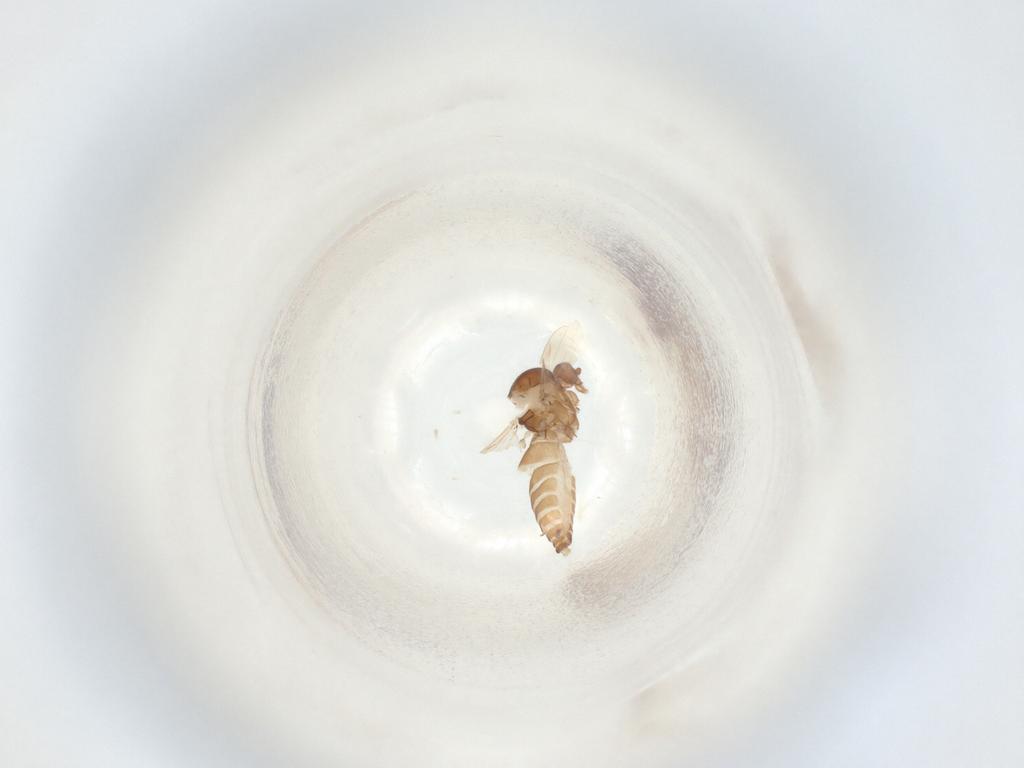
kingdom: Animalia
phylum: Arthropoda
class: Insecta
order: Diptera
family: Ceratopogonidae
